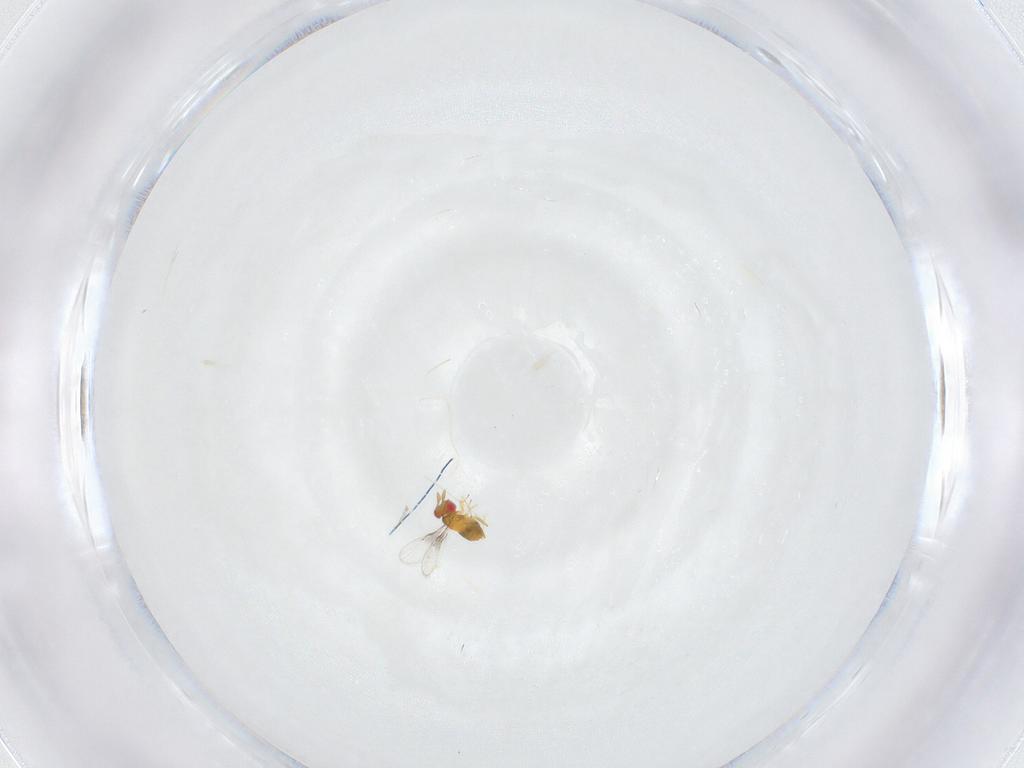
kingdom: Animalia
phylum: Arthropoda
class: Insecta
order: Hymenoptera
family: Trichogrammatidae
